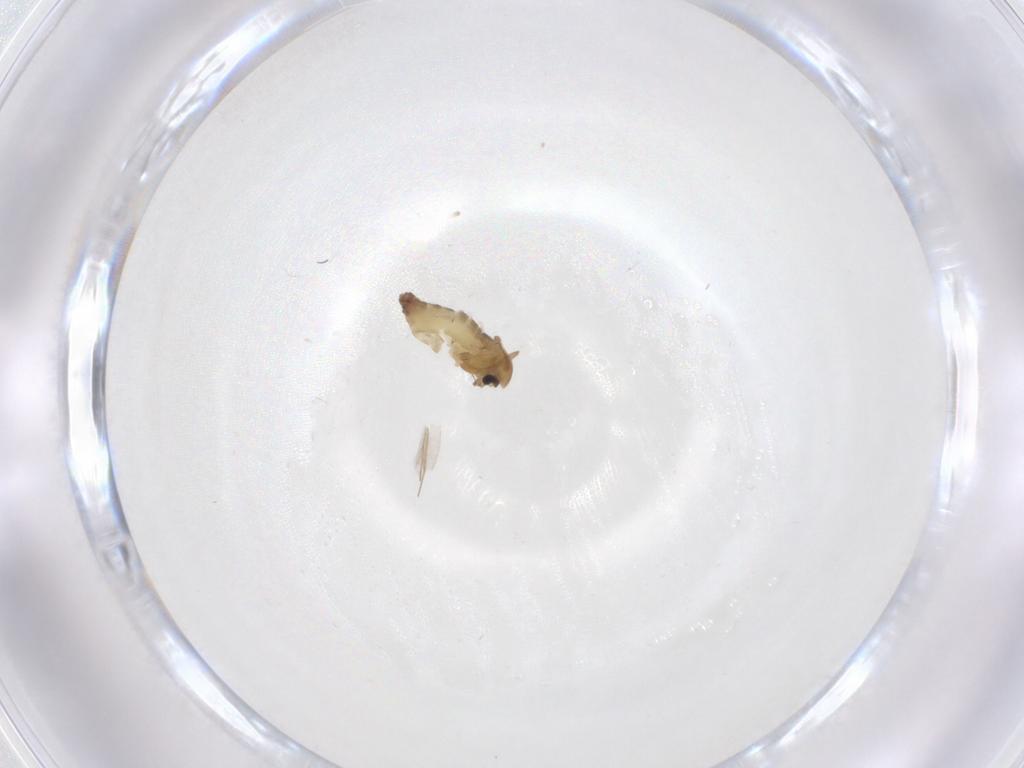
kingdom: Animalia
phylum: Arthropoda
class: Insecta
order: Diptera
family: Chironomidae
